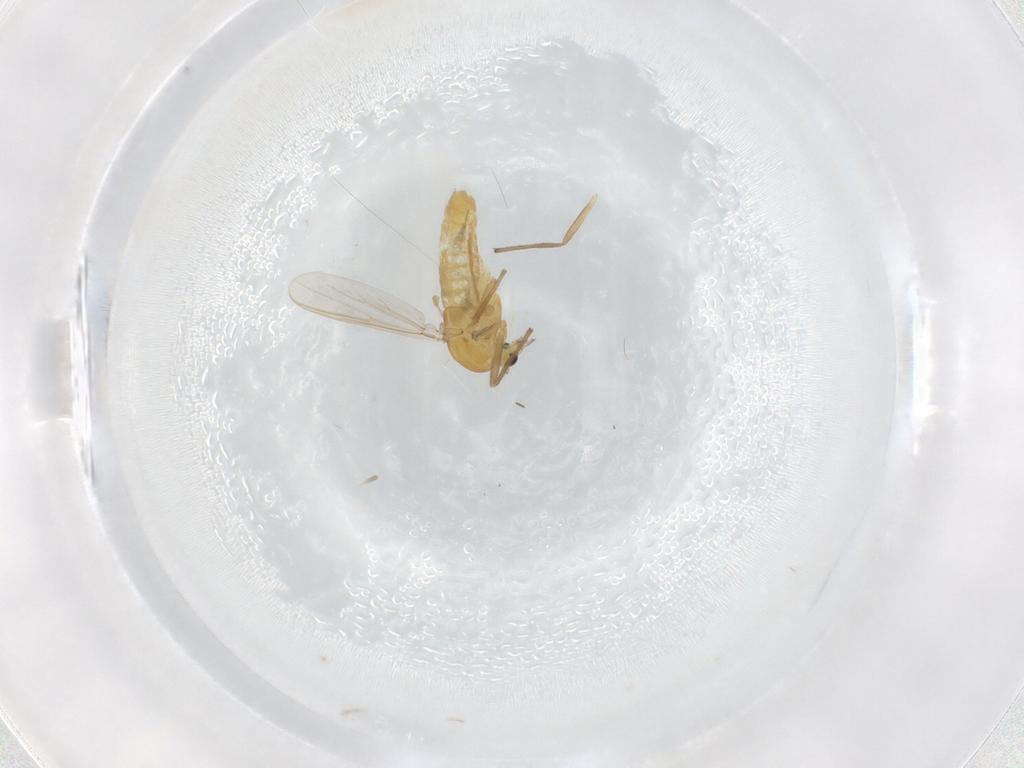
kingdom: Animalia
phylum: Arthropoda
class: Insecta
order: Diptera
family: Psychodidae
